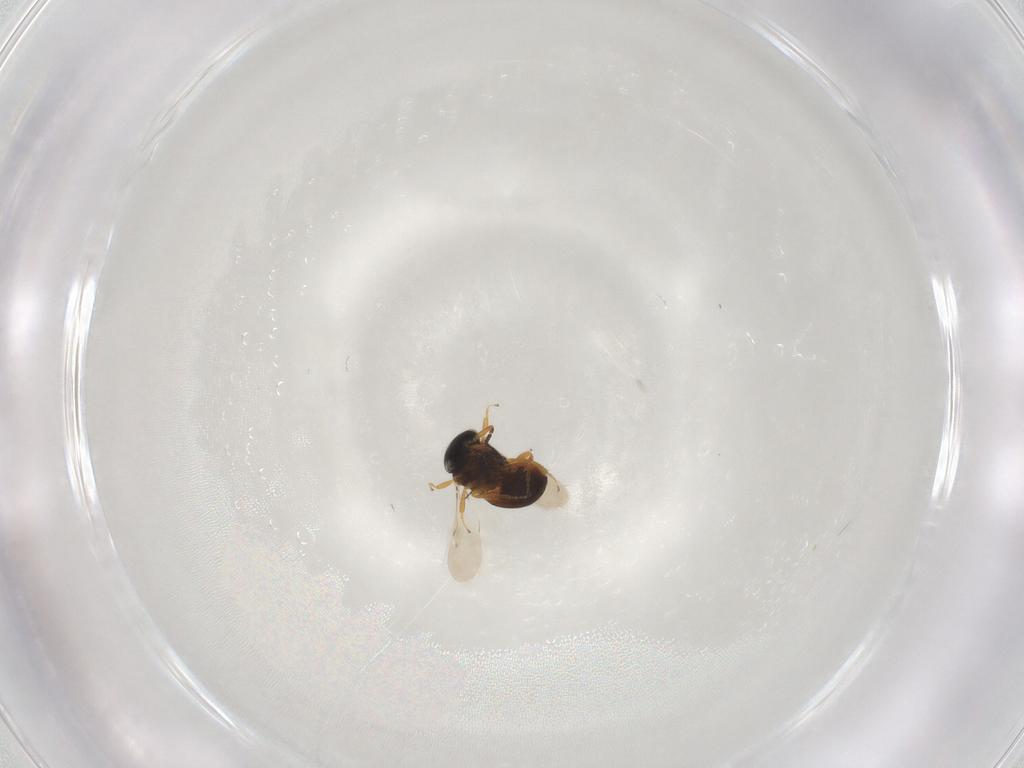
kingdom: Animalia
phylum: Arthropoda
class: Insecta
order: Hymenoptera
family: Scelionidae
